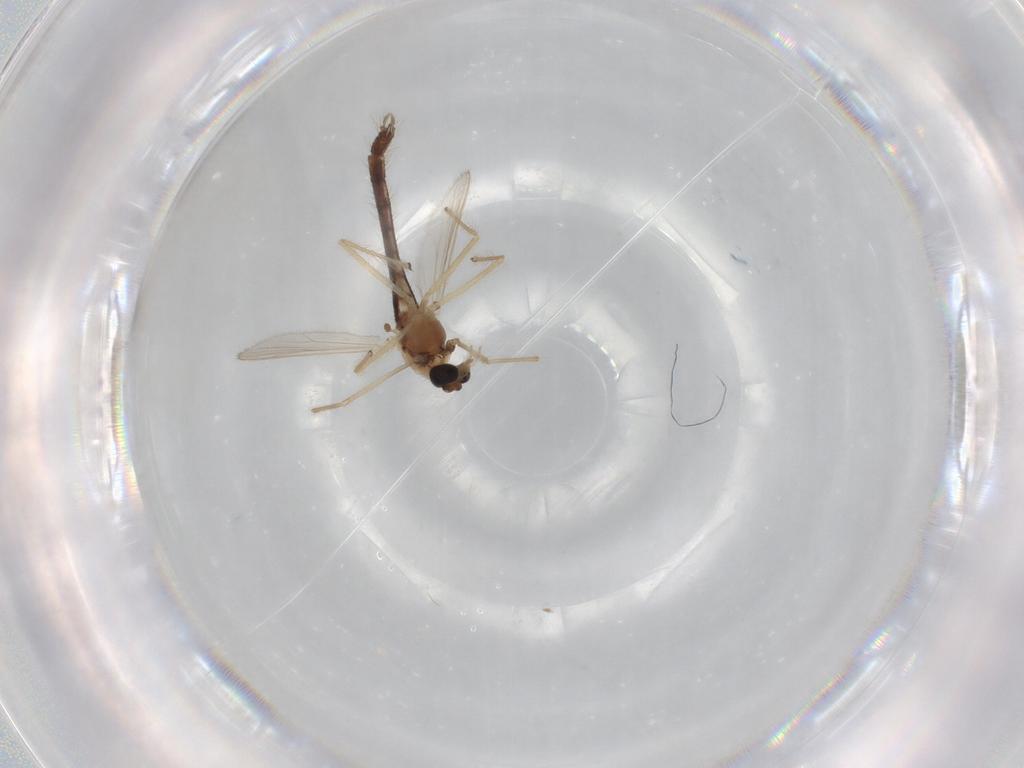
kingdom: Animalia
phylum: Arthropoda
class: Insecta
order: Diptera
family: Chironomidae
